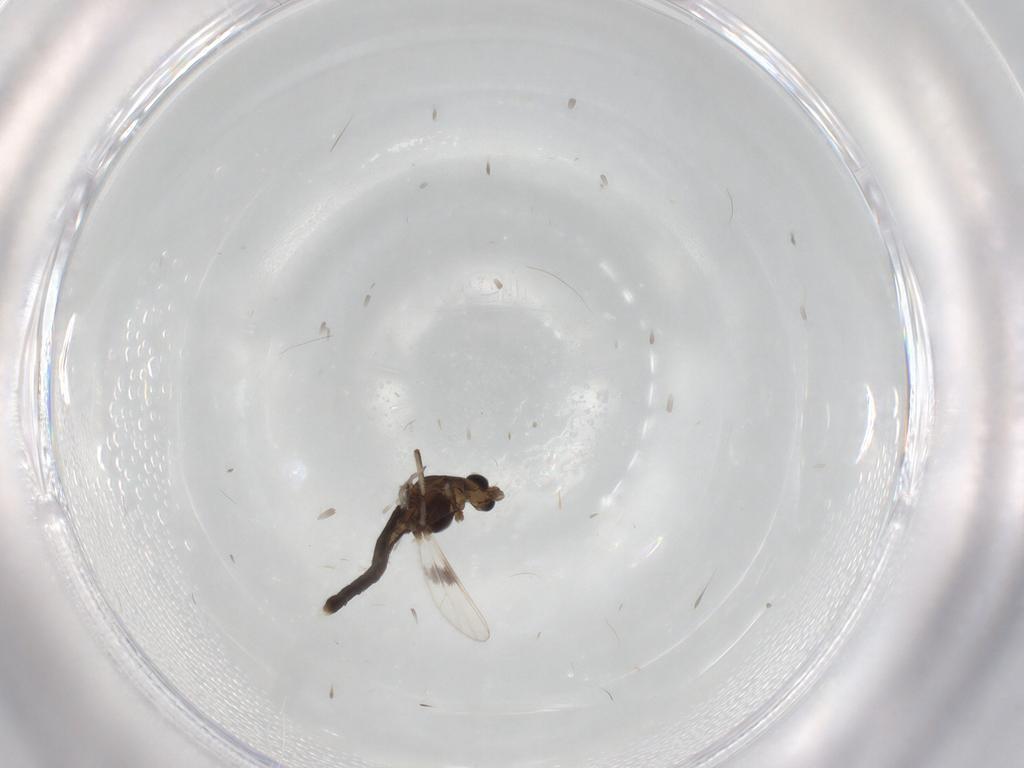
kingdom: Animalia
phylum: Arthropoda
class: Insecta
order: Diptera
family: Chironomidae
